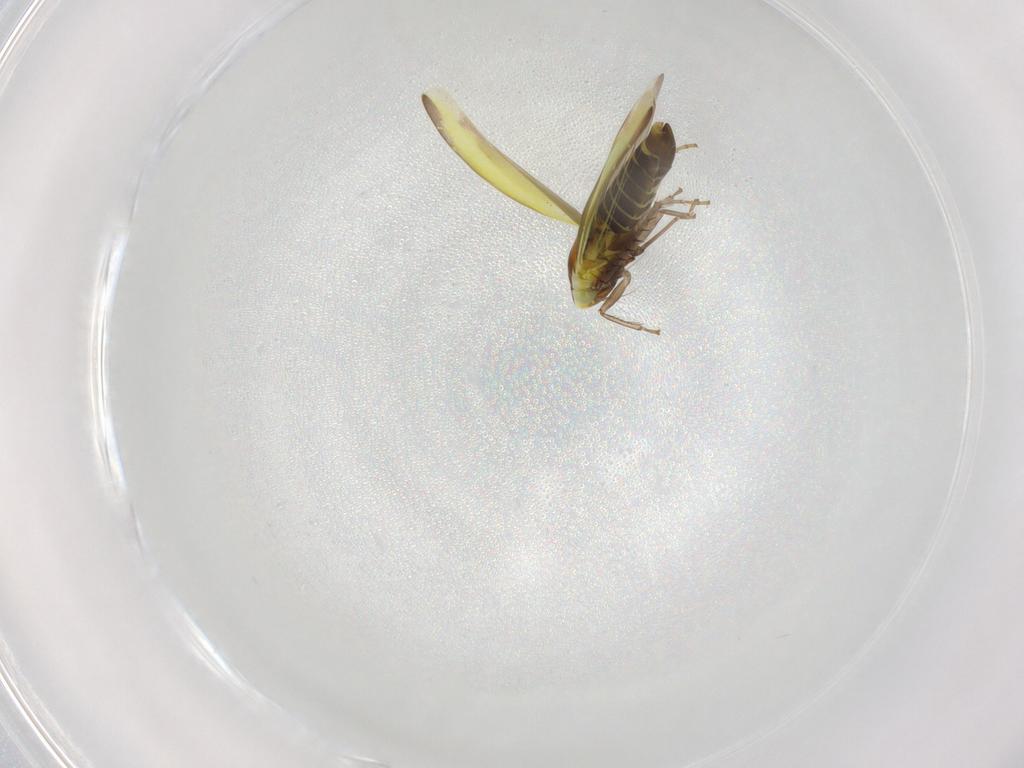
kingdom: Animalia
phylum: Arthropoda
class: Insecta
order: Hemiptera
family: Cicadellidae
